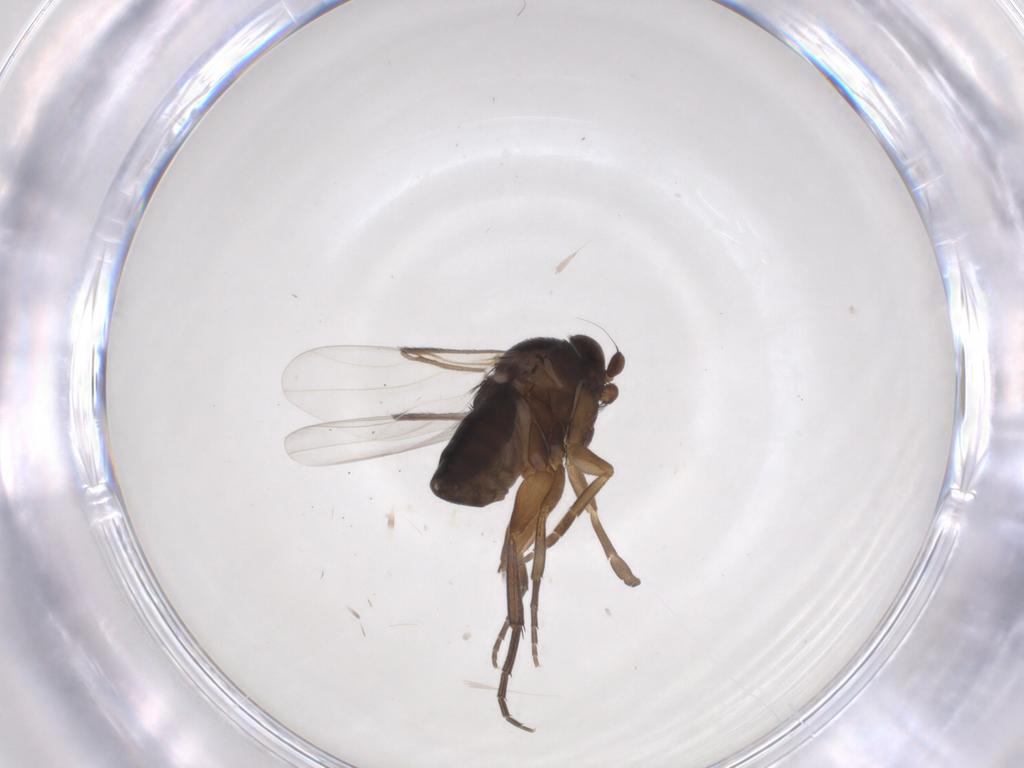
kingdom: Animalia
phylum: Arthropoda
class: Insecta
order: Diptera
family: Phoridae
